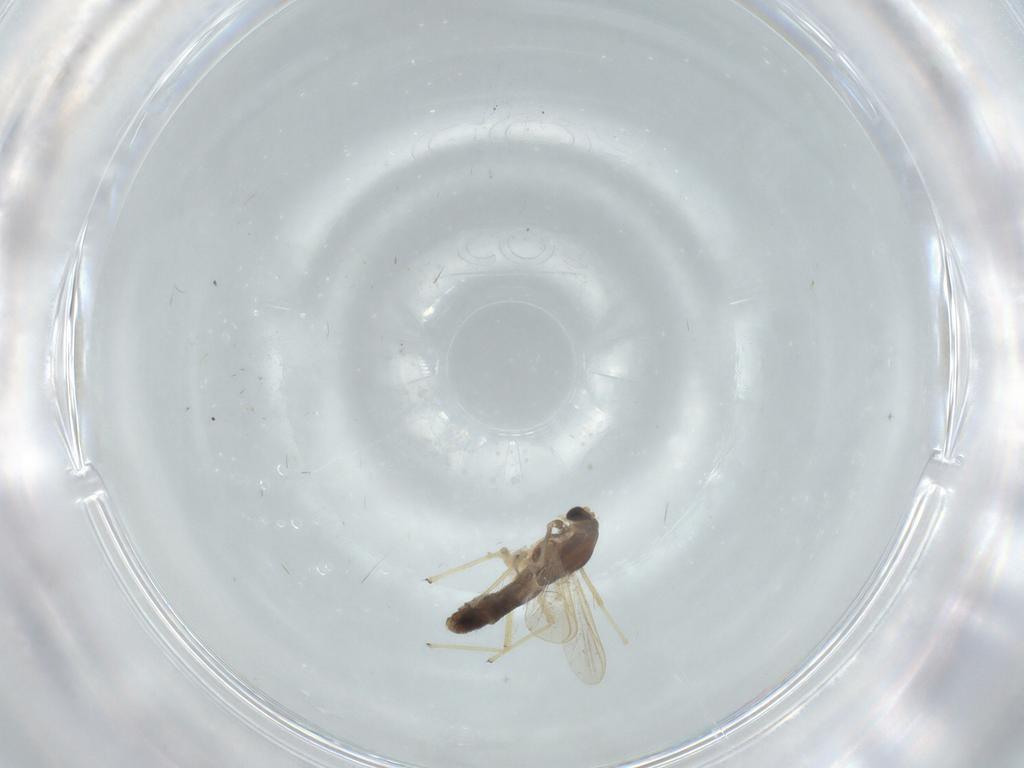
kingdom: Animalia
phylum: Arthropoda
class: Insecta
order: Diptera
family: Chironomidae
